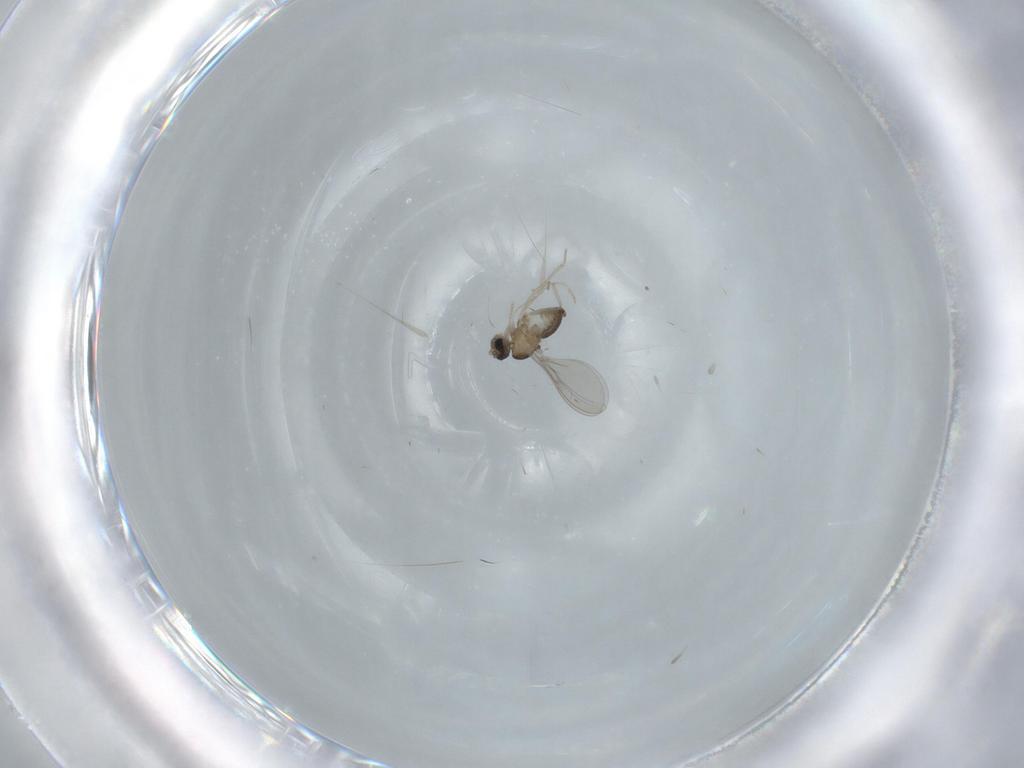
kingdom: Animalia
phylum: Arthropoda
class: Insecta
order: Diptera
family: Cecidomyiidae
